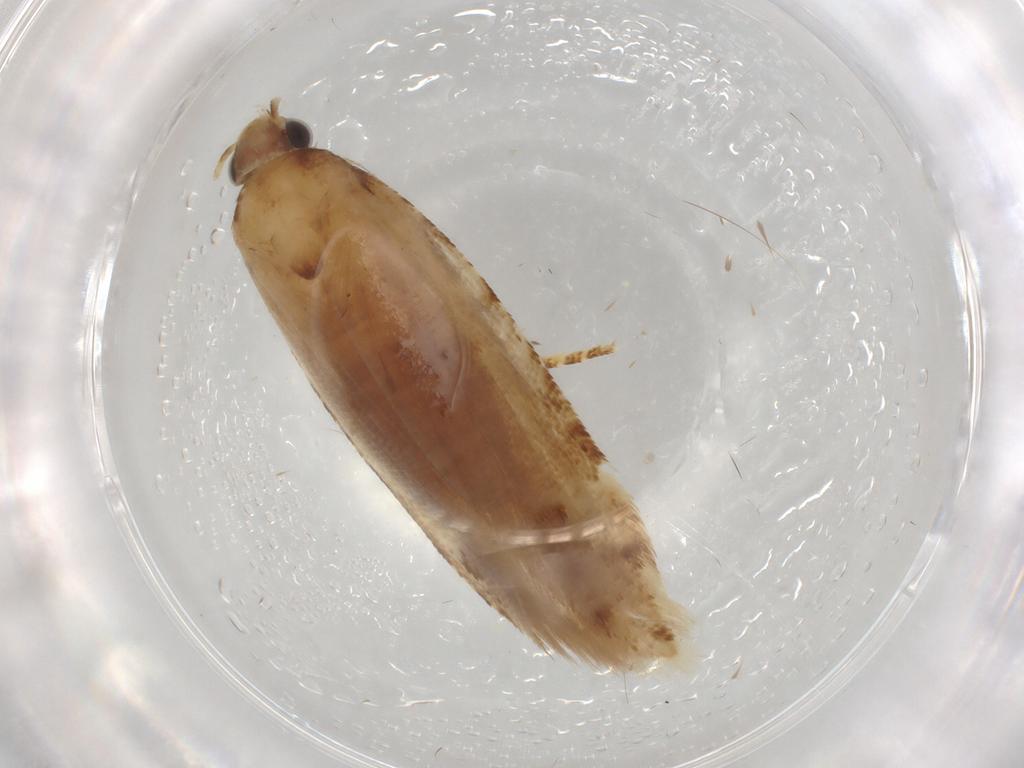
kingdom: Animalia
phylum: Arthropoda
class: Insecta
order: Lepidoptera
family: Gelechiidae
